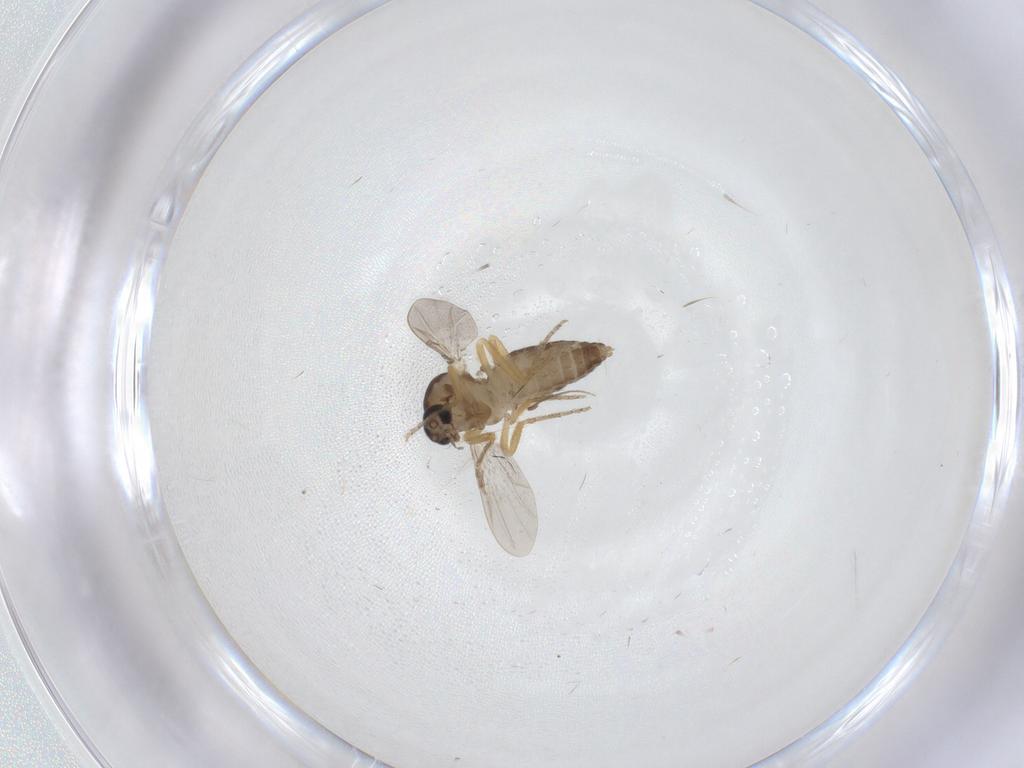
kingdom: Animalia
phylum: Arthropoda
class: Insecta
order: Diptera
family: Ceratopogonidae
